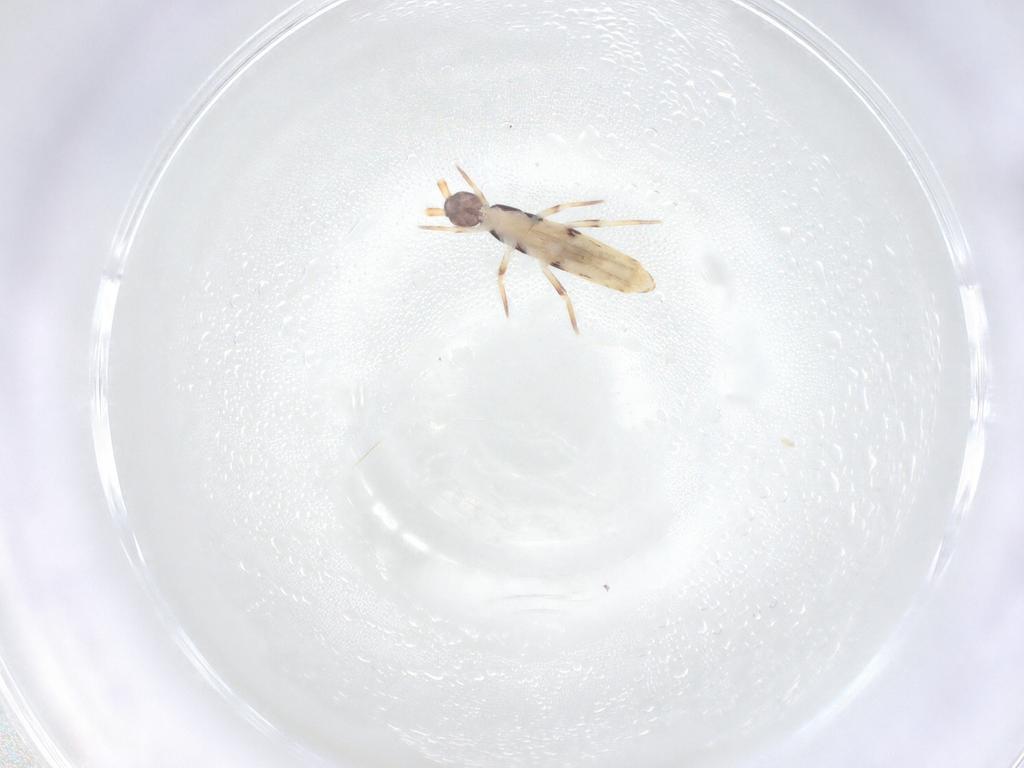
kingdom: Animalia
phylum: Arthropoda
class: Collembola
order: Entomobryomorpha
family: Entomobryidae
